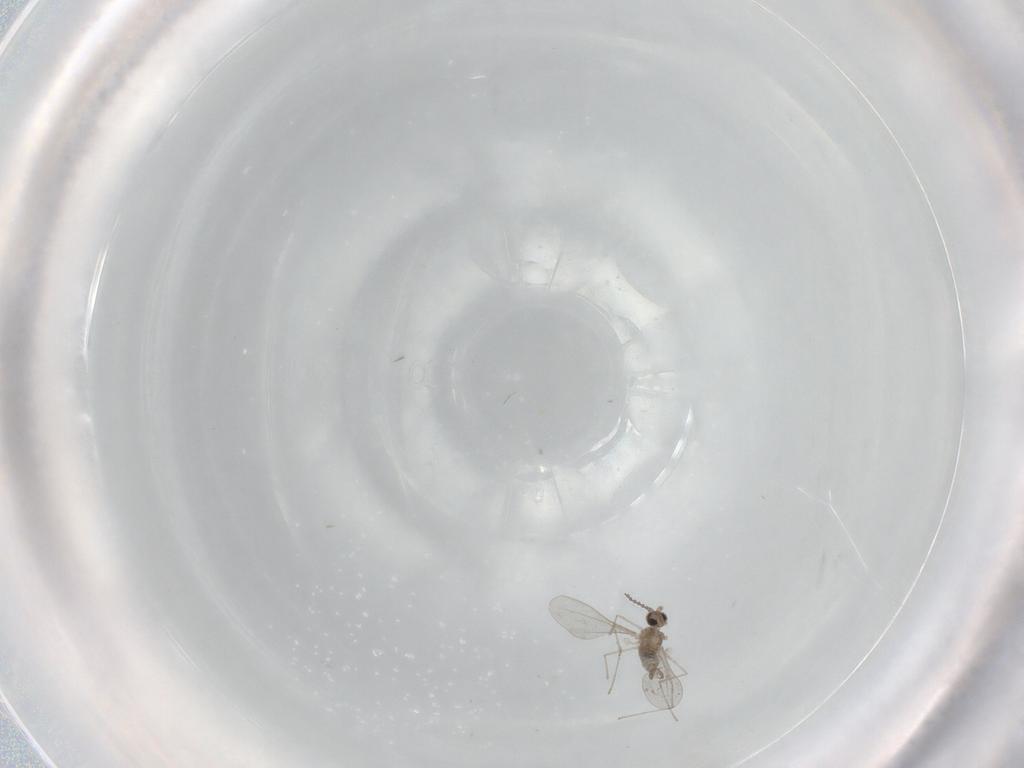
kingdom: Animalia
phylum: Arthropoda
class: Insecta
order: Diptera
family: Cecidomyiidae
